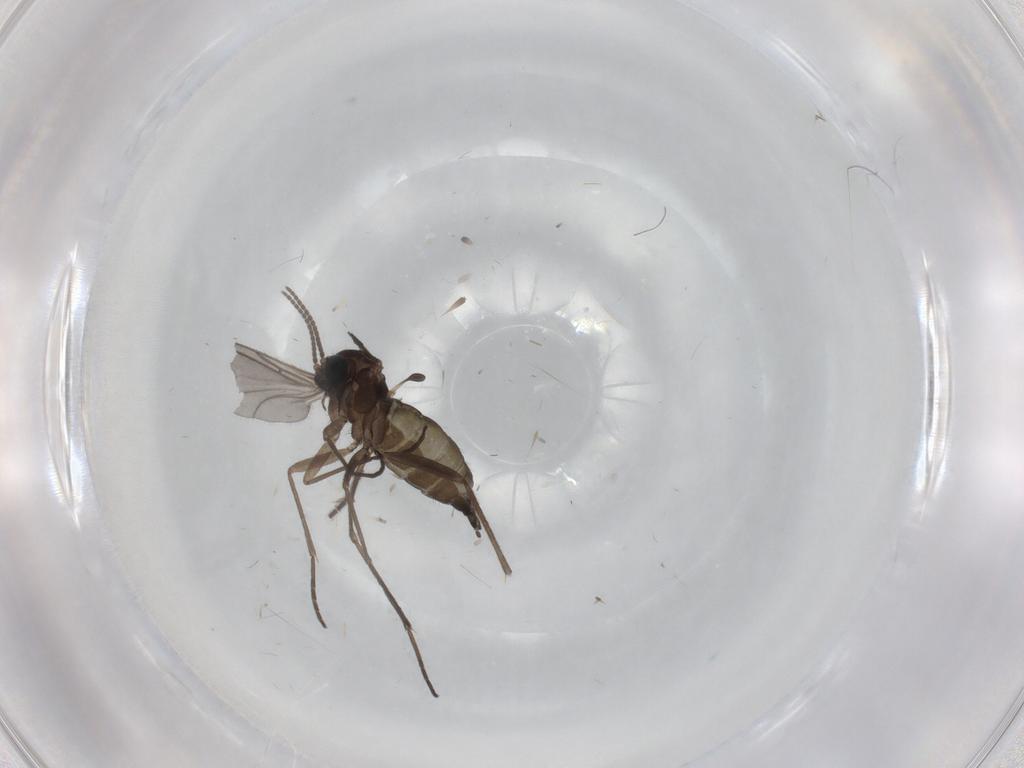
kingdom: Animalia
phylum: Arthropoda
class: Insecta
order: Diptera
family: Sciaridae
